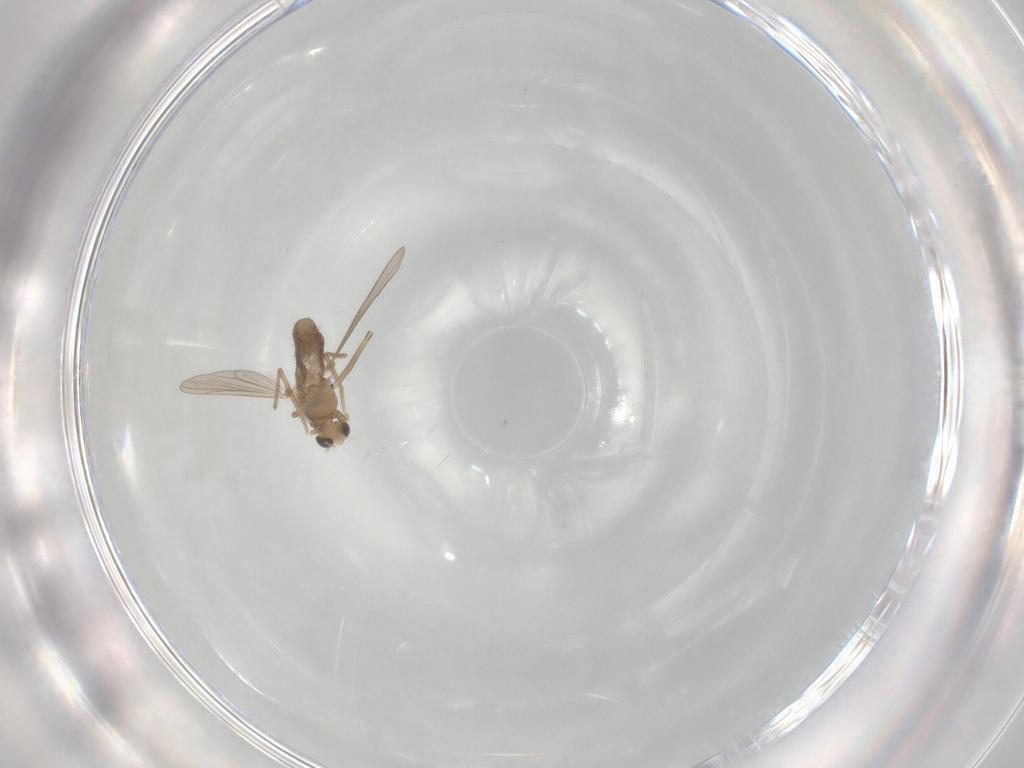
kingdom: Animalia
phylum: Arthropoda
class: Insecta
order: Diptera
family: Chironomidae
